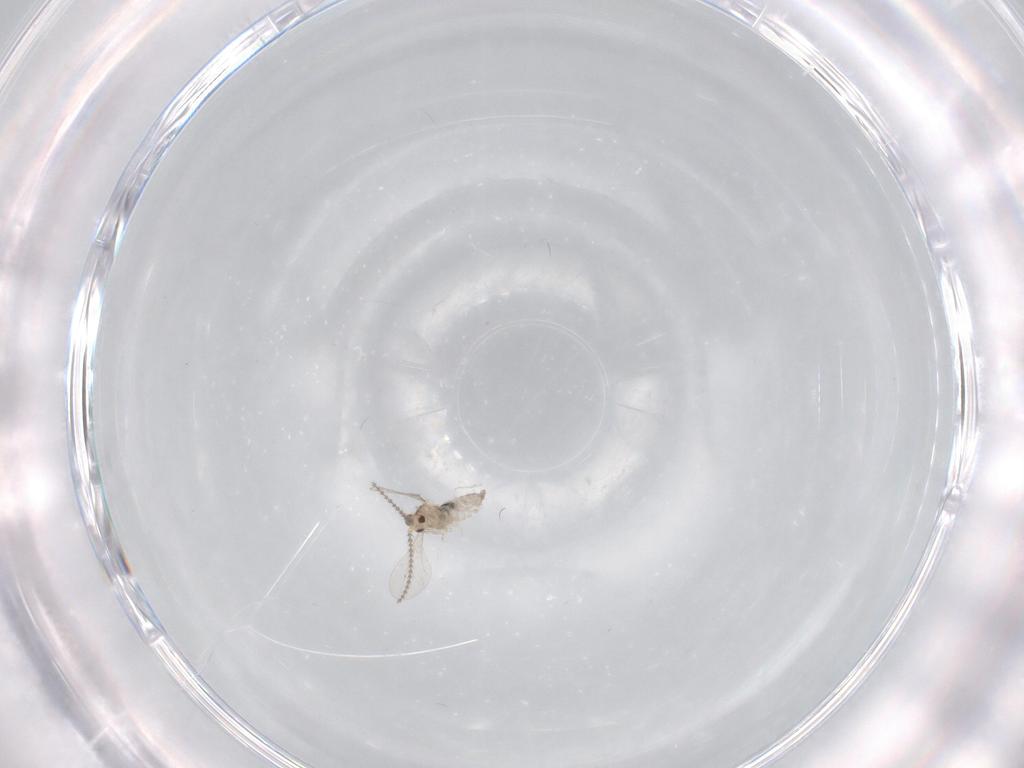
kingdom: Animalia
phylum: Arthropoda
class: Insecta
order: Diptera
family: Cecidomyiidae
